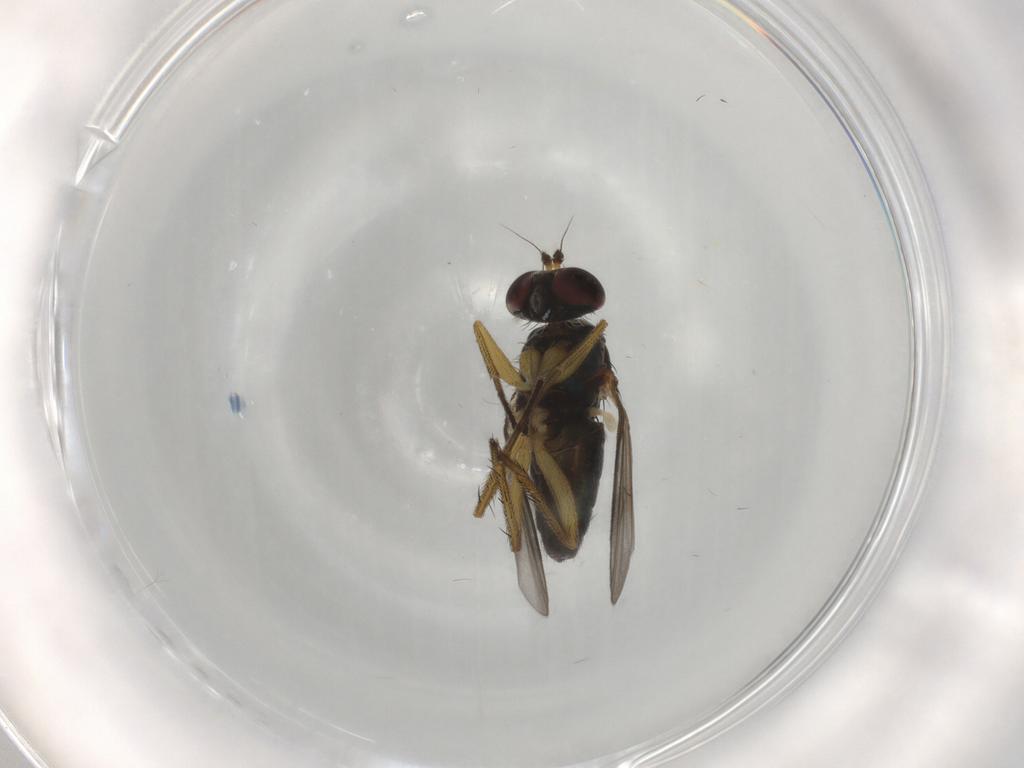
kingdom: Animalia
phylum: Arthropoda
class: Insecta
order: Diptera
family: Dolichopodidae
